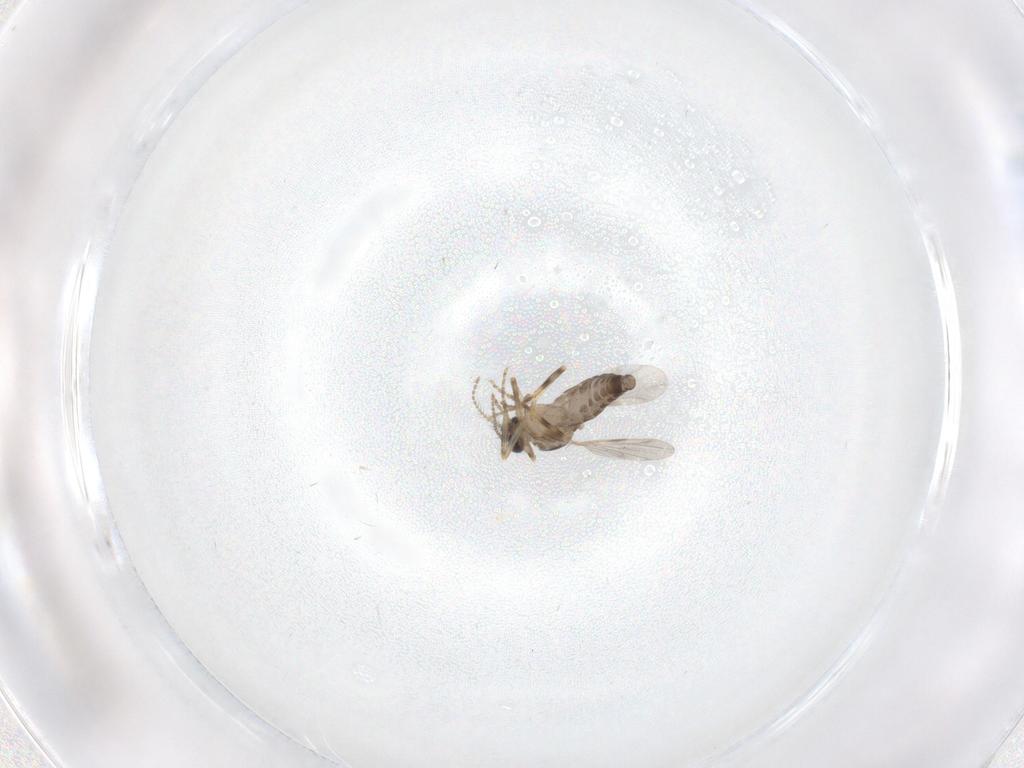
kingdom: Animalia
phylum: Arthropoda
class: Insecta
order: Diptera
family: Ceratopogonidae
